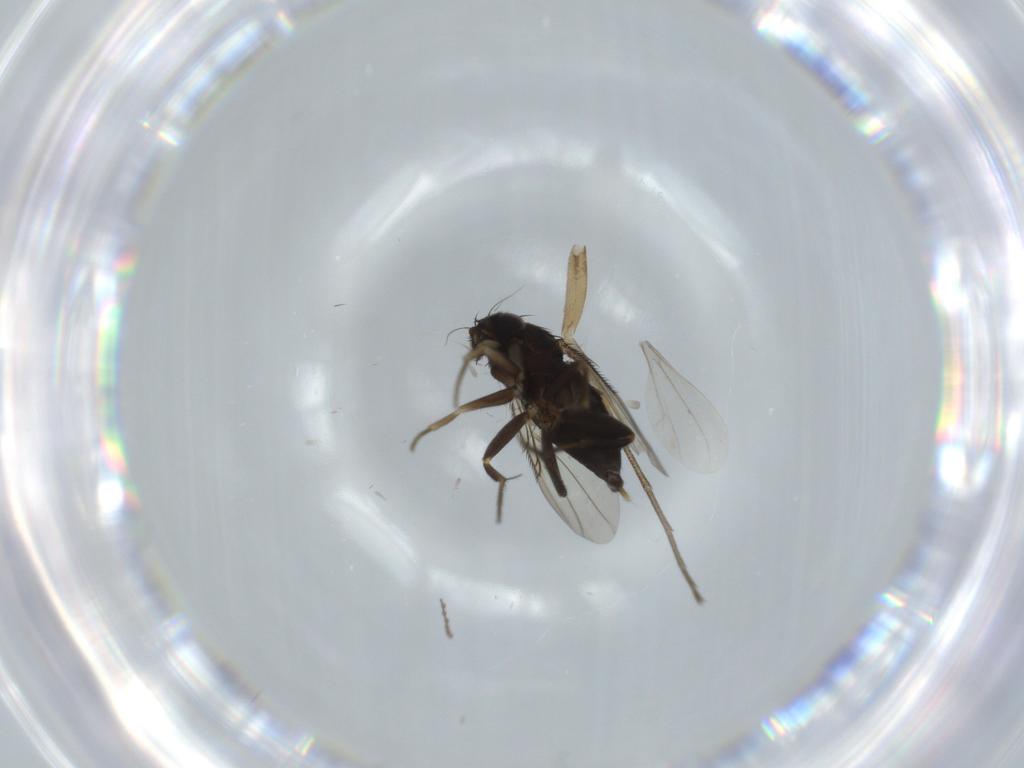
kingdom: Animalia
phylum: Arthropoda
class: Insecta
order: Diptera
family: Phoridae
